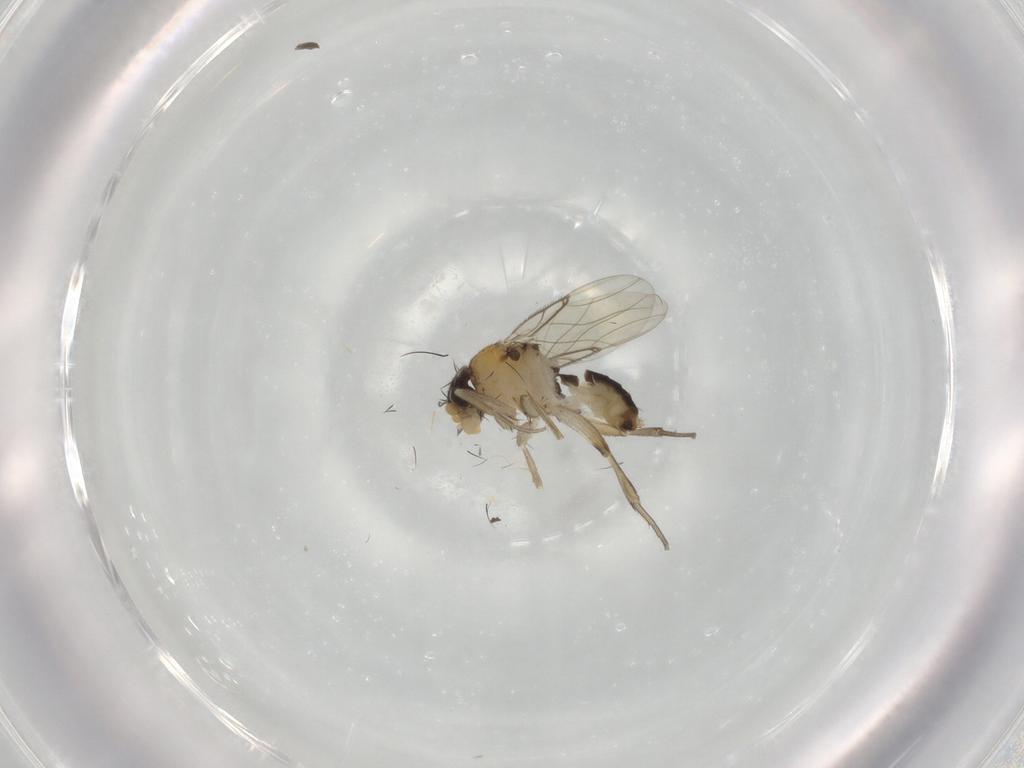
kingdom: Animalia
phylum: Arthropoda
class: Insecta
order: Diptera
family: Phoridae
